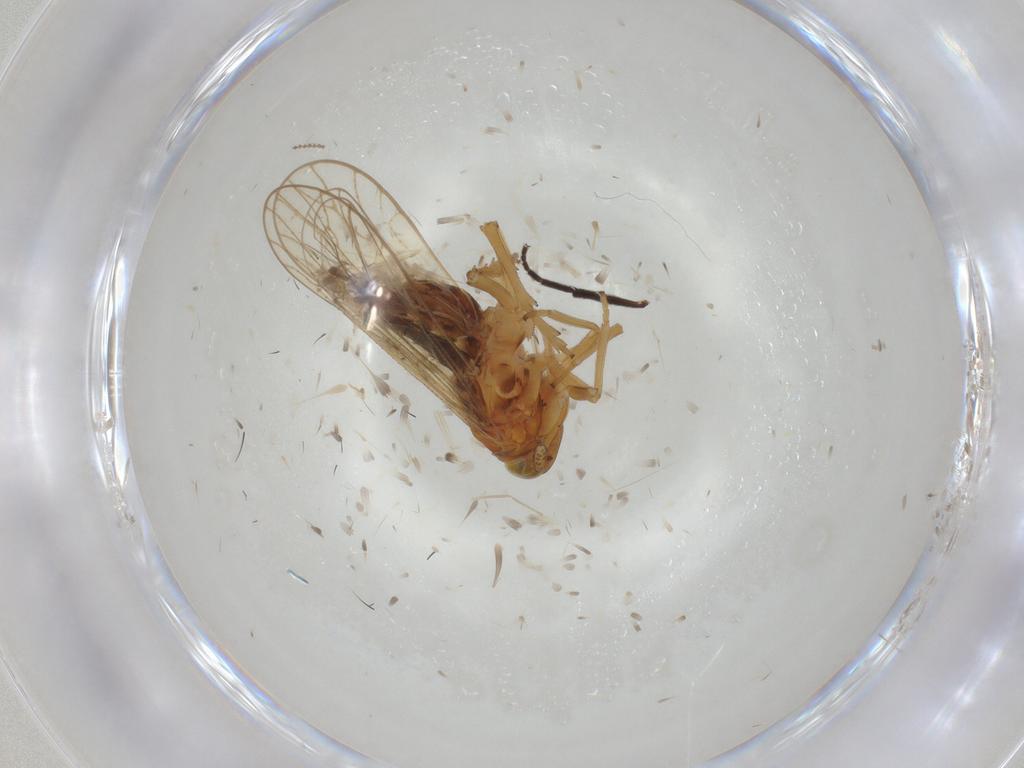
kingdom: Animalia
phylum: Arthropoda
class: Insecta
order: Hemiptera
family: Delphacidae
